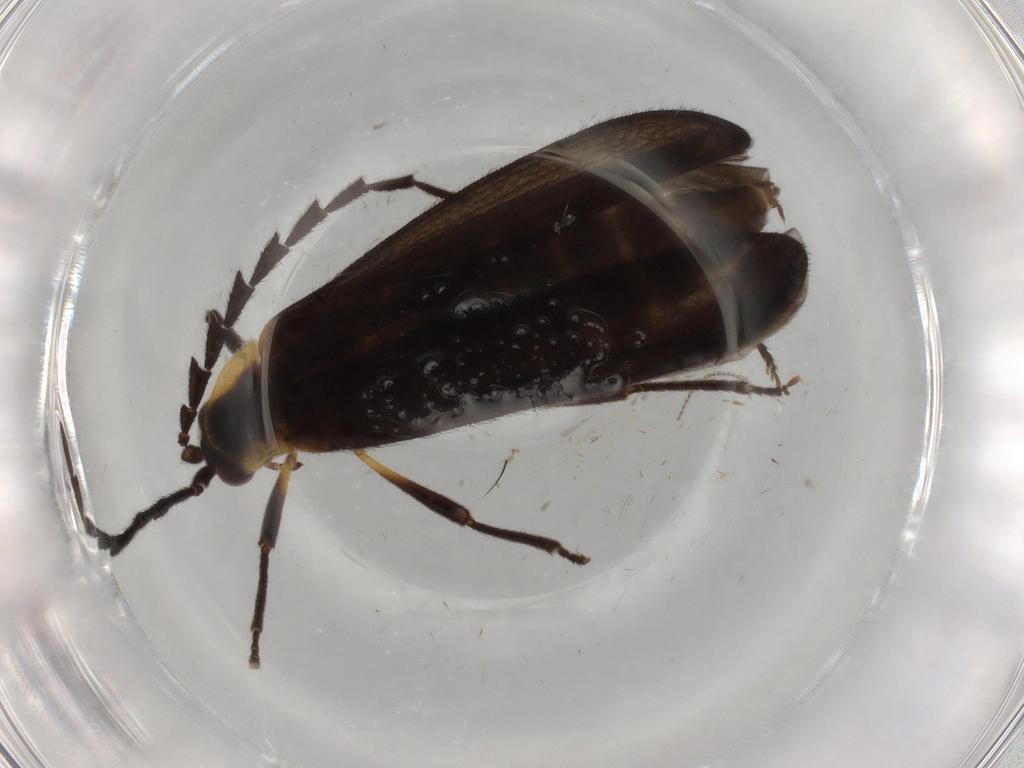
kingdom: Animalia
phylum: Arthropoda
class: Insecta
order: Coleoptera
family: Lycidae
